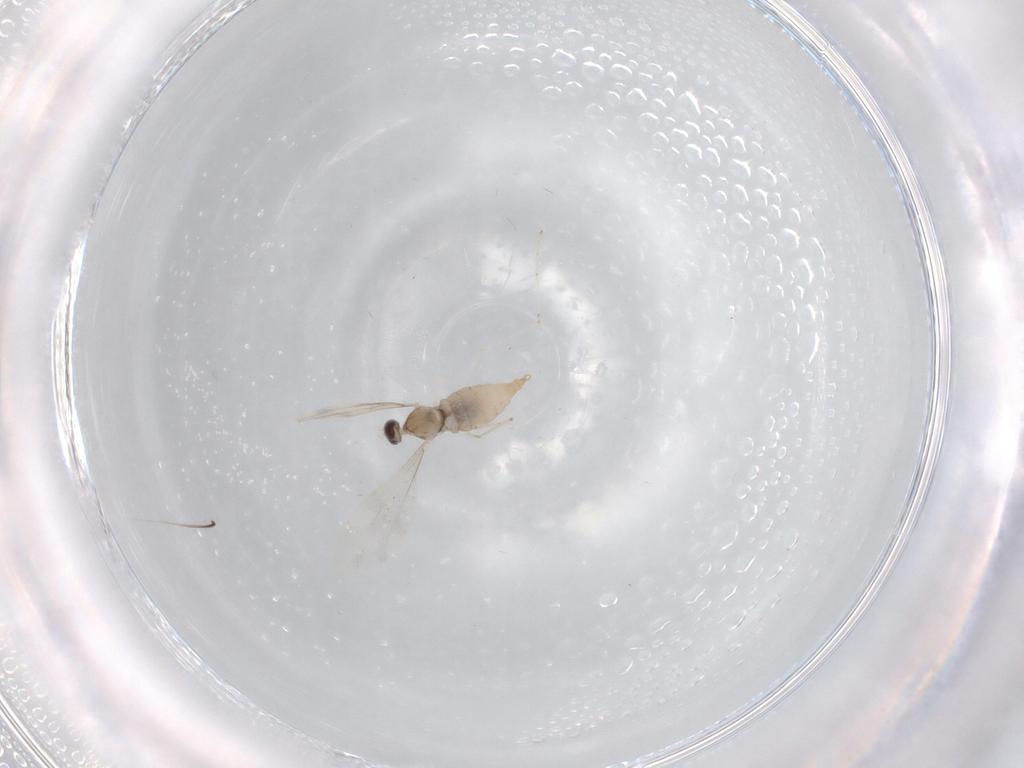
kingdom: Animalia
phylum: Arthropoda
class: Insecta
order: Diptera
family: Cecidomyiidae
